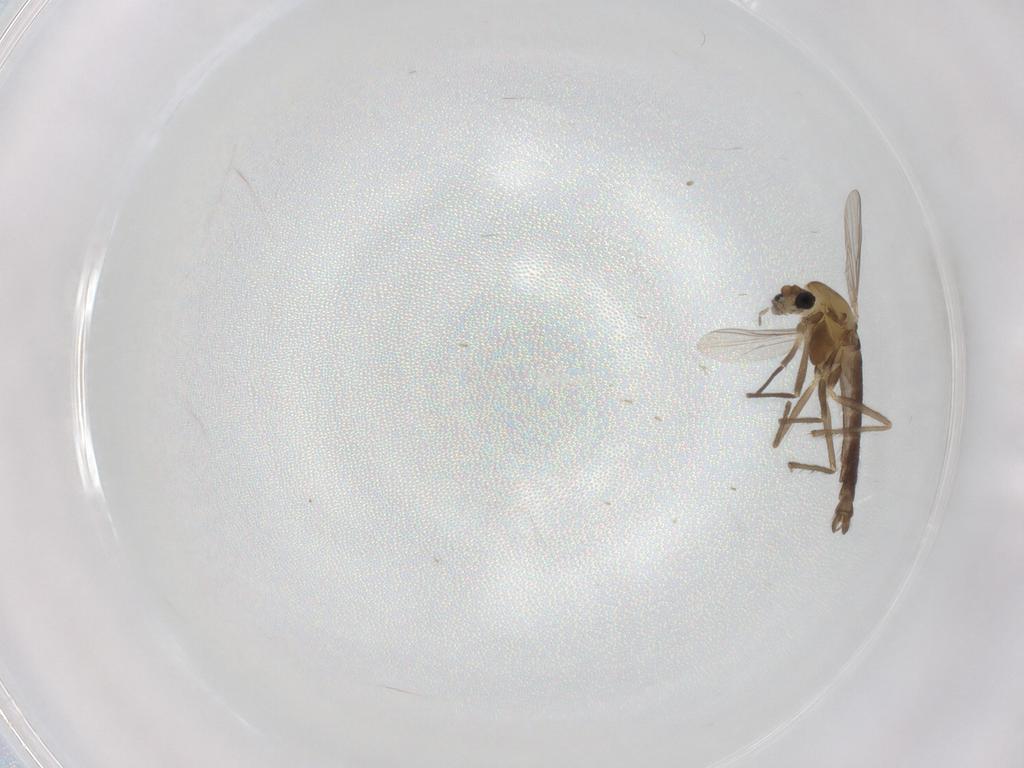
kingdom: Animalia
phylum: Arthropoda
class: Insecta
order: Diptera
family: Chironomidae
